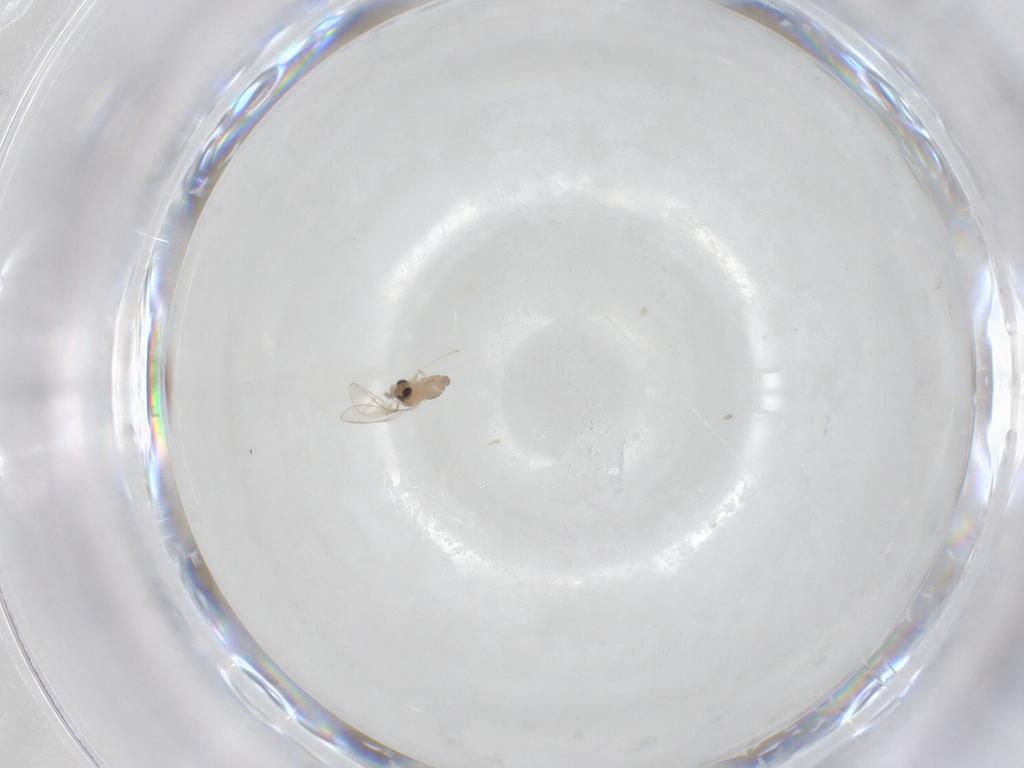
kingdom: Animalia
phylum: Arthropoda
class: Insecta
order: Diptera
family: Cecidomyiidae
